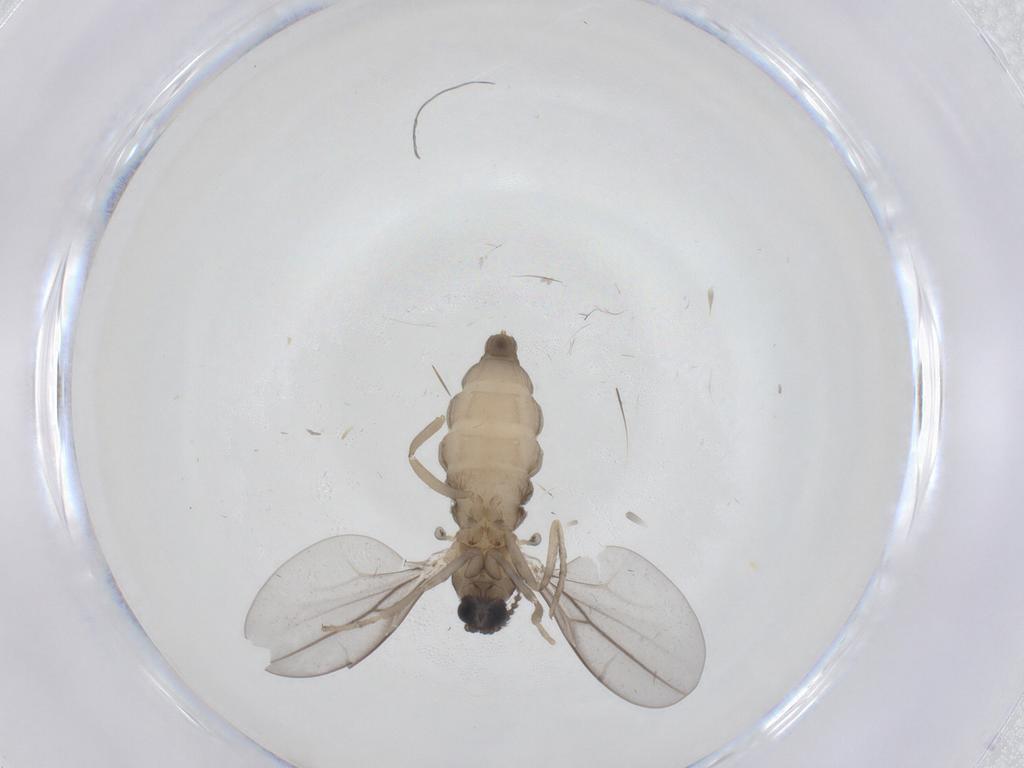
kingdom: Animalia
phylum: Arthropoda
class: Insecta
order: Diptera
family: Cecidomyiidae
